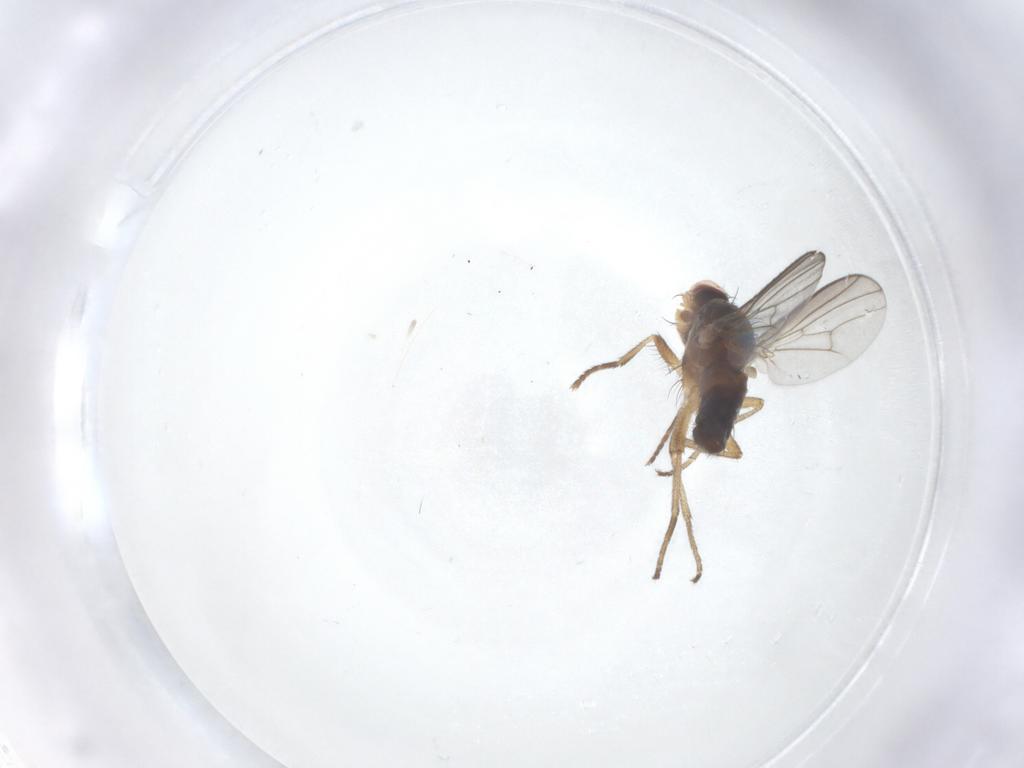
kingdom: Animalia
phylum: Arthropoda
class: Insecta
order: Diptera
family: Heleomyzidae
